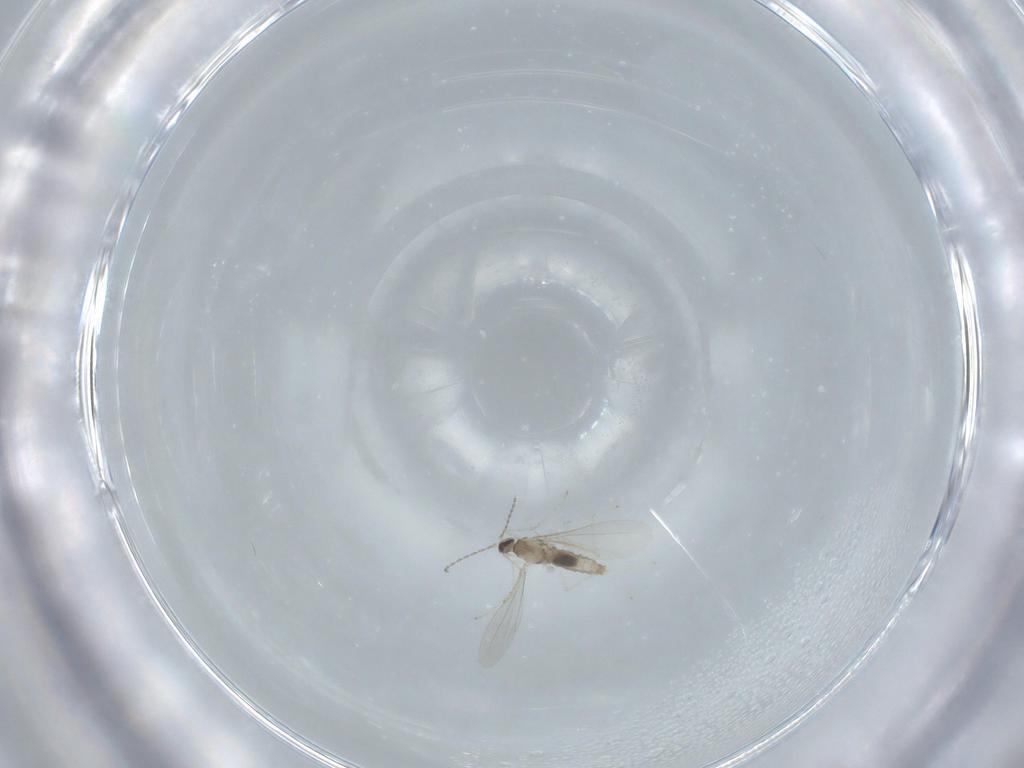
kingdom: Animalia
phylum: Arthropoda
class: Insecta
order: Diptera
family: Cecidomyiidae
